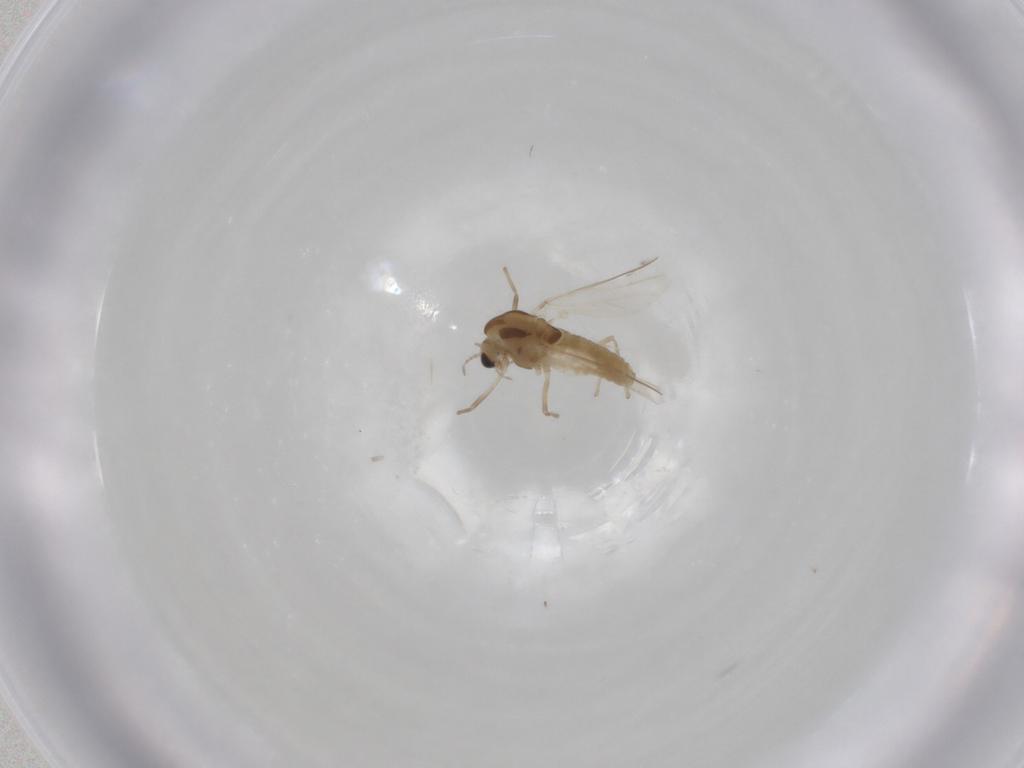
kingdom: Animalia
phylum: Arthropoda
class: Insecta
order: Diptera
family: Chironomidae
